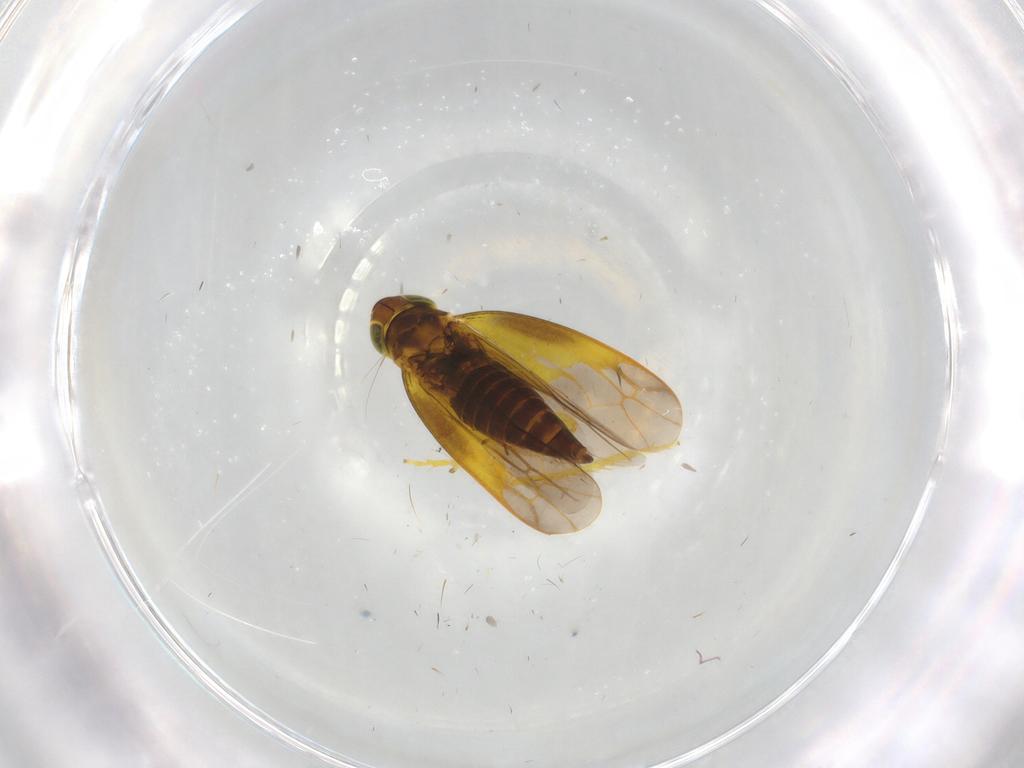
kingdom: Animalia
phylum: Arthropoda
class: Insecta
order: Hemiptera
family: Cicadellidae
